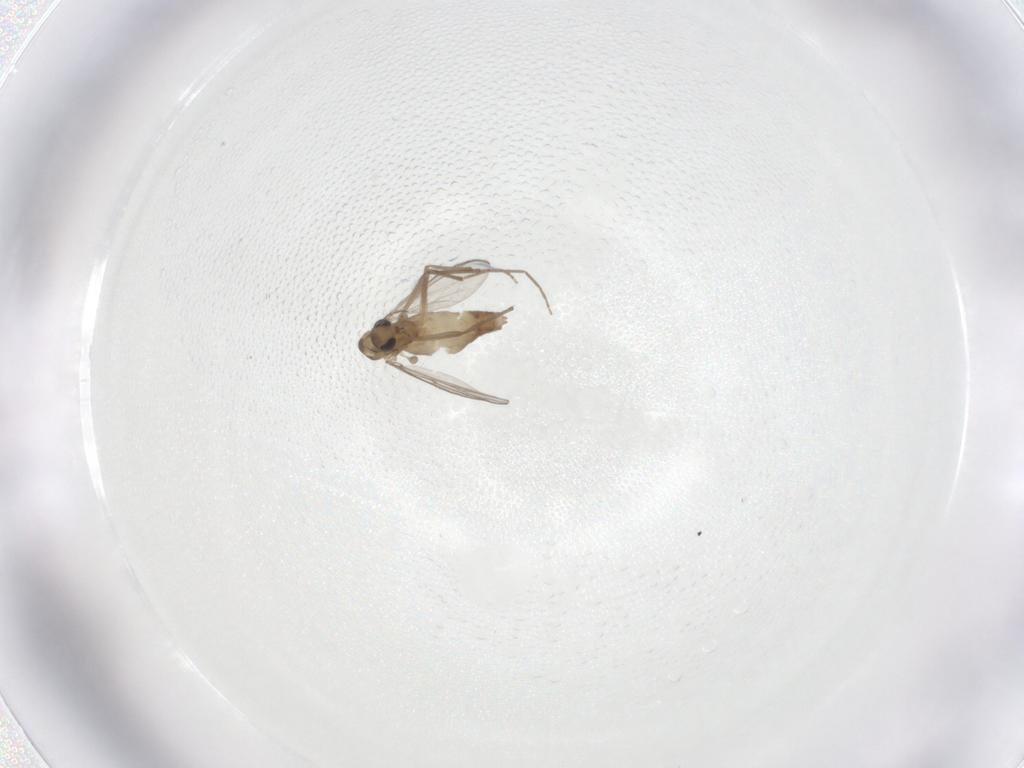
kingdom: Animalia
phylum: Arthropoda
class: Insecta
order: Diptera
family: Chironomidae
